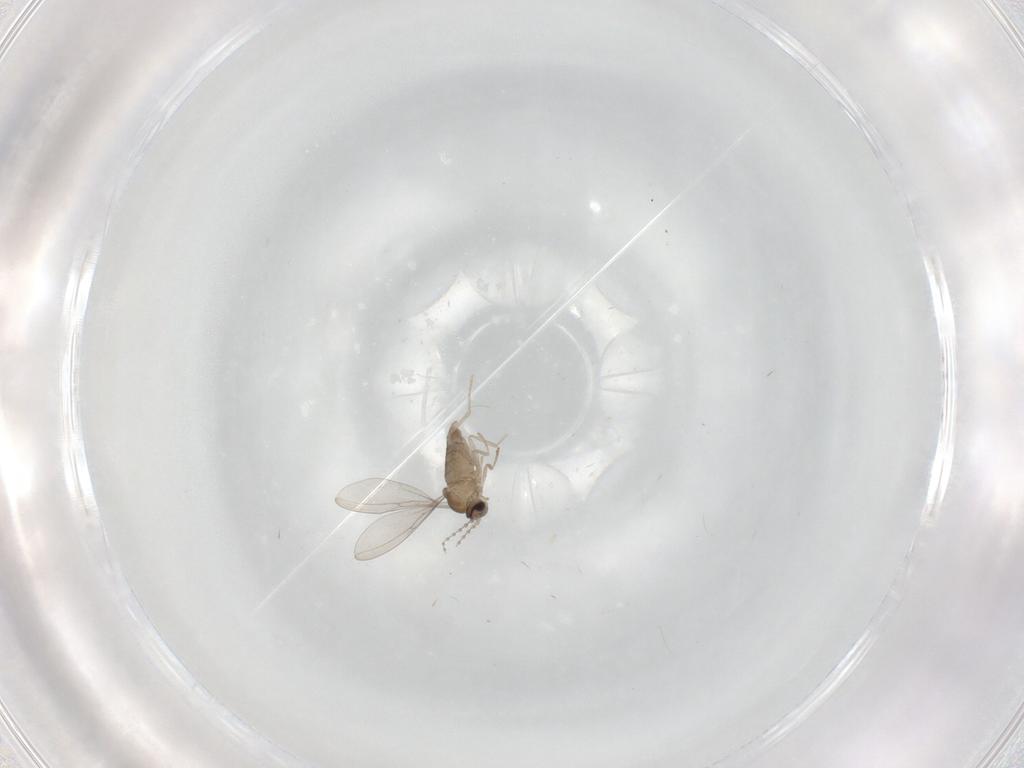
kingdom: Animalia
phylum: Arthropoda
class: Insecta
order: Diptera
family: Cecidomyiidae
